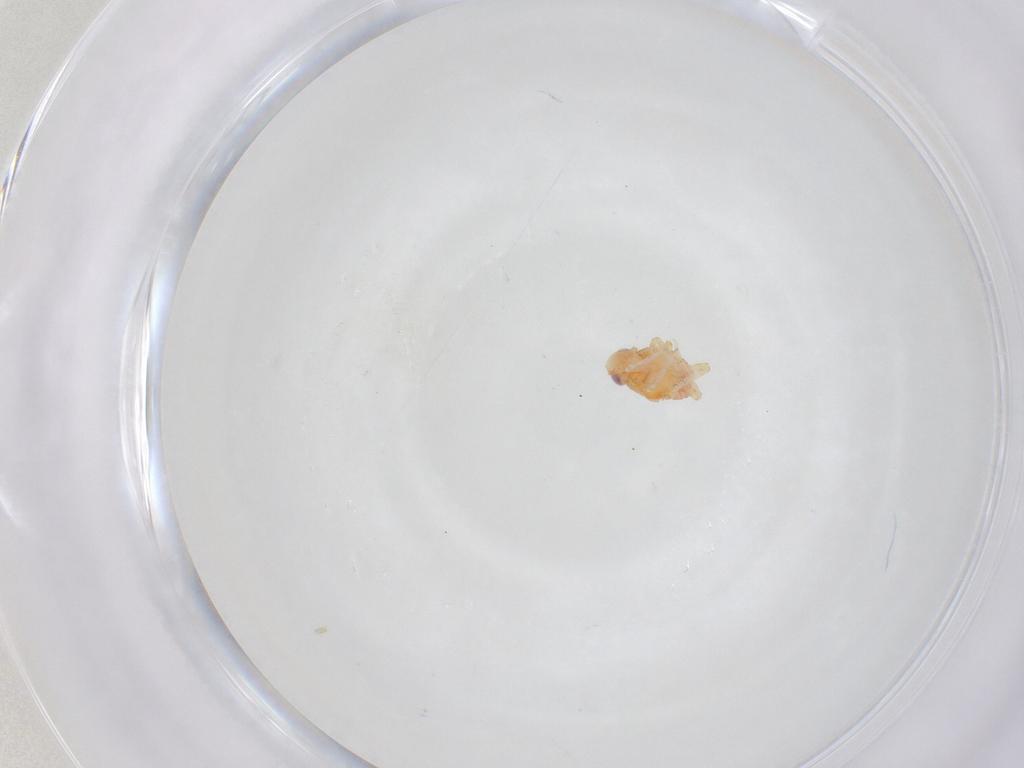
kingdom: Animalia
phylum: Arthropoda
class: Insecta
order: Hemiptera
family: Issidae
